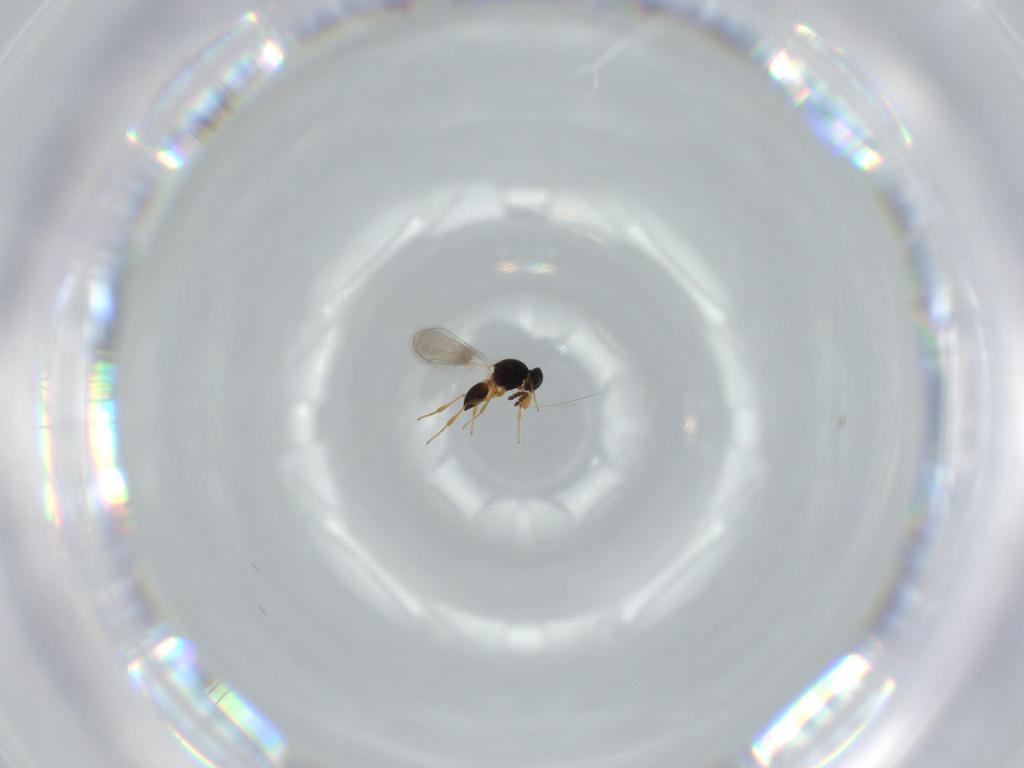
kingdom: Animalia
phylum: Arthropoda
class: Insecta
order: Hymenoptera
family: Platygastridae
